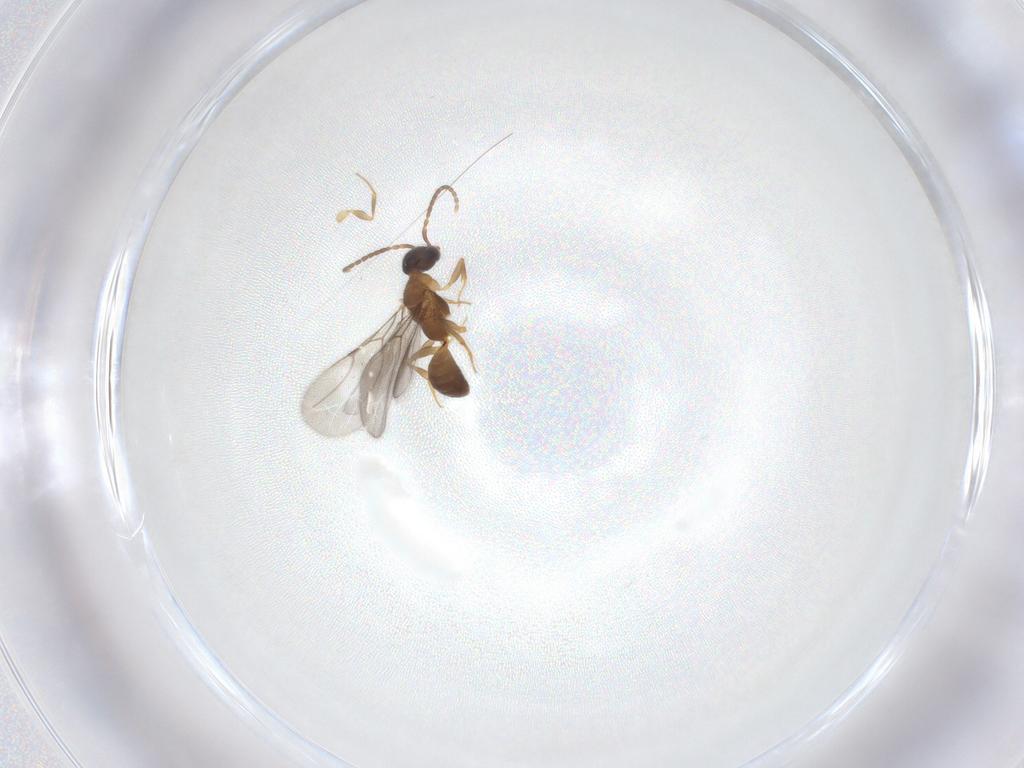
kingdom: Animalia
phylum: Arthropoda
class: Insecta
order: Hymenoptera
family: Bethylidae
